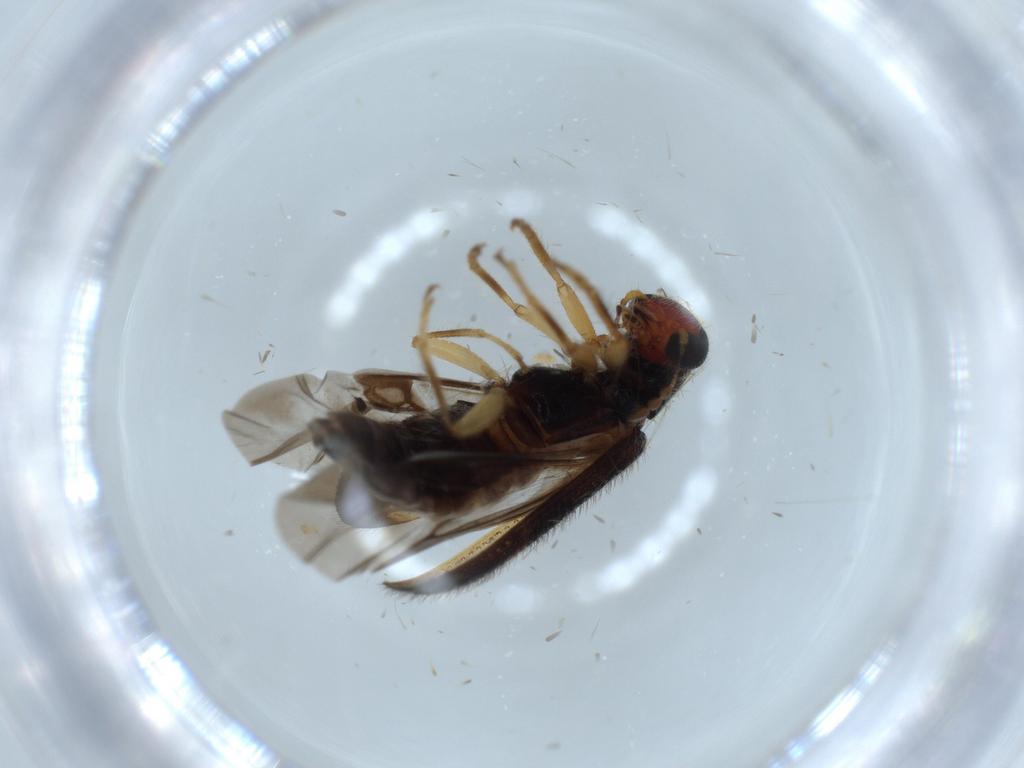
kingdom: Animalia
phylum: Arthropoda
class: Insecta
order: Coleoptera
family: Cleridae
